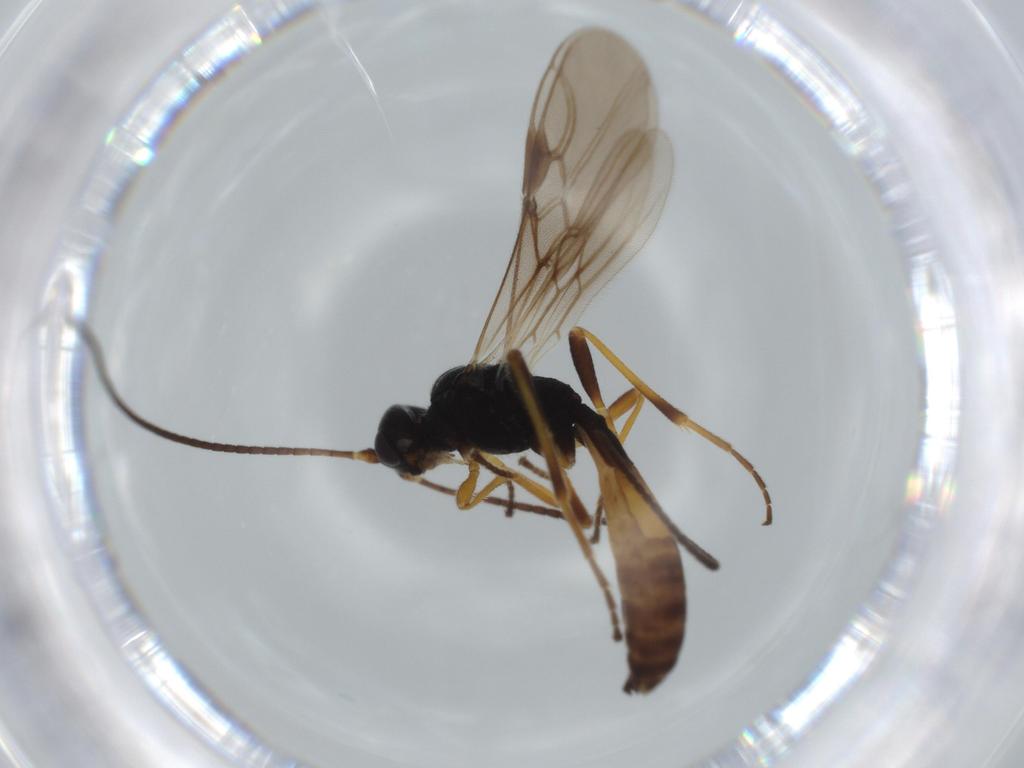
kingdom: Animalia
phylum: Arthropoda
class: Insecta
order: Hymenoptera
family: Braconidae
